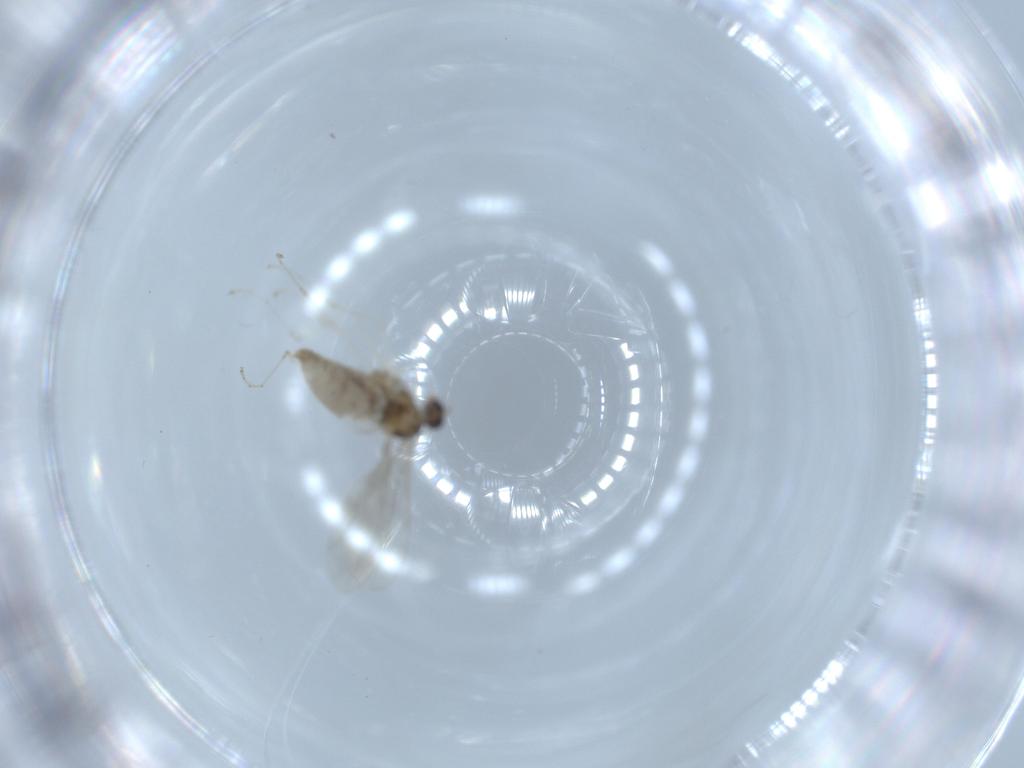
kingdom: Animalia
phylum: Arthropoda
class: Insecta
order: Diptera
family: Cecidomyiidae
